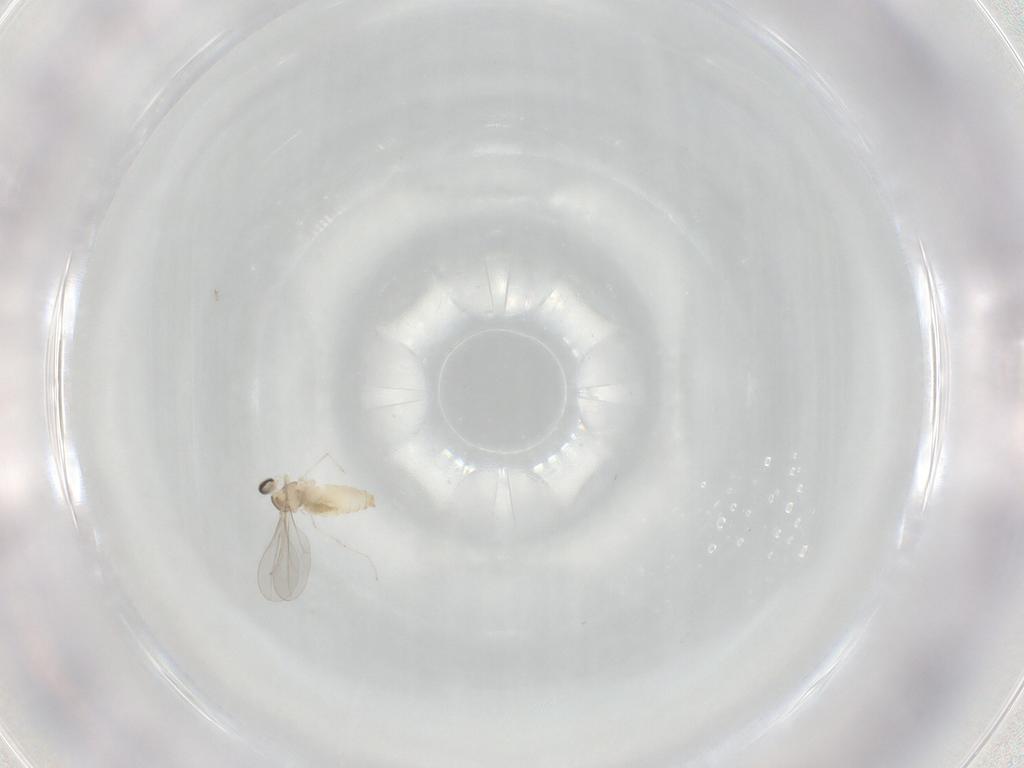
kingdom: Animalia
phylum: Arthropoda
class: Insecta
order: Diptera
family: Cecidomyiidae
